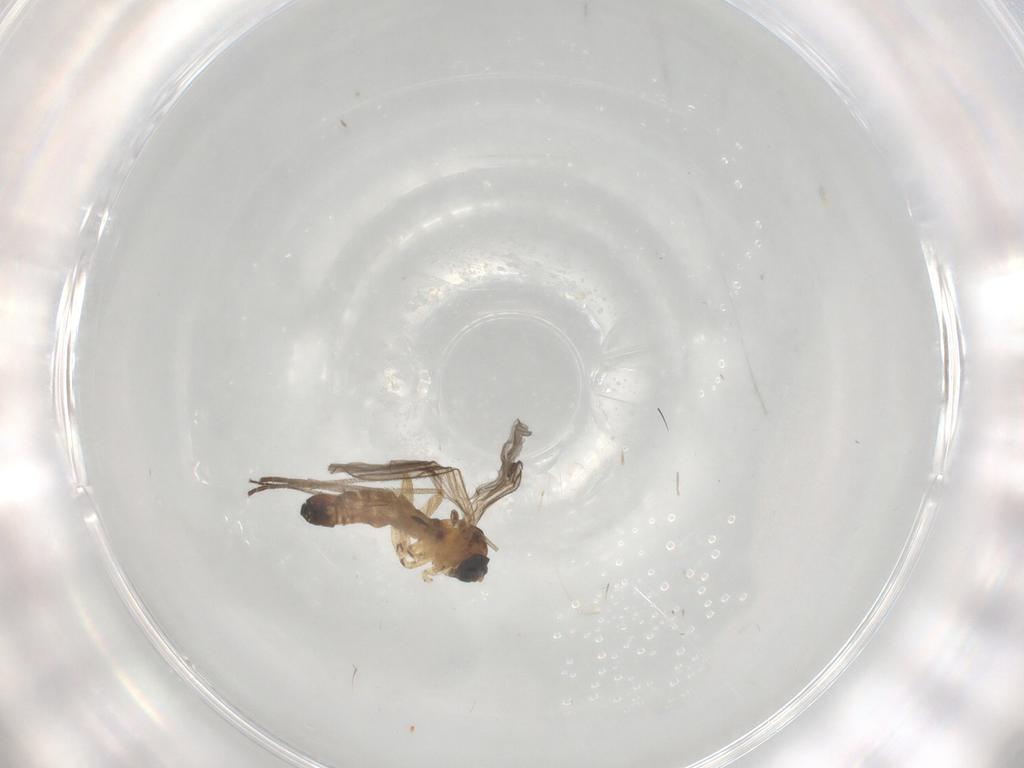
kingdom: Animalia
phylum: Arthropoda
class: Insecta
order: Diptera
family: Sciaridae
